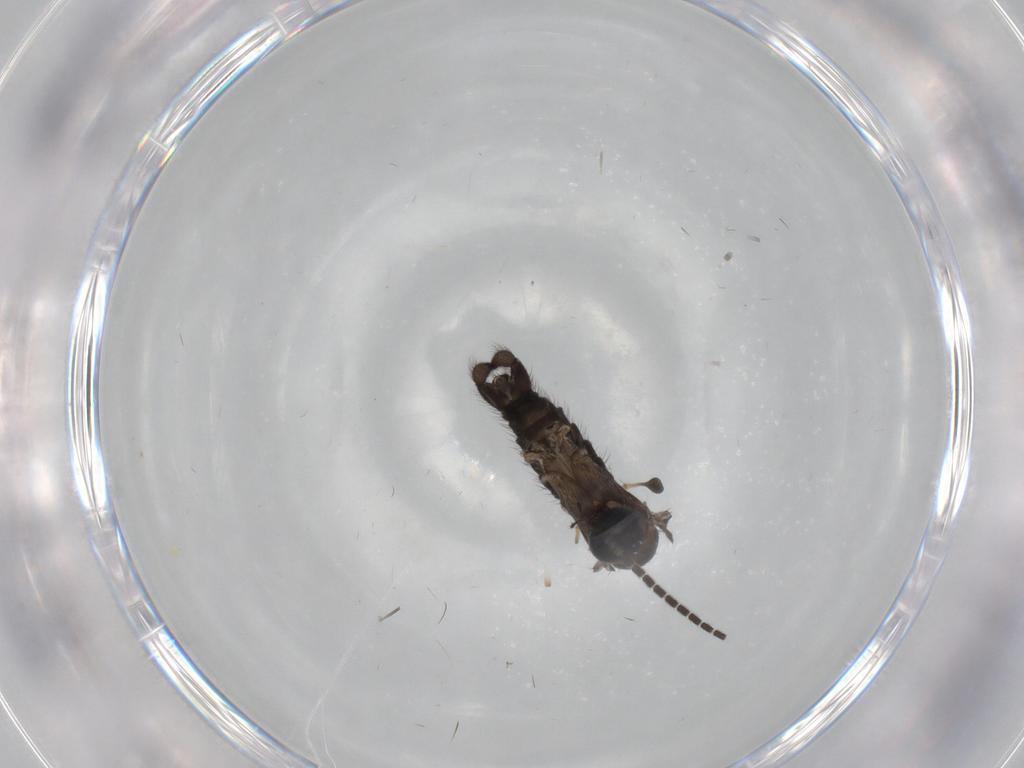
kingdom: Animalia
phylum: Arthropoda
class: Insecta
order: Diptera
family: Sciaridae
